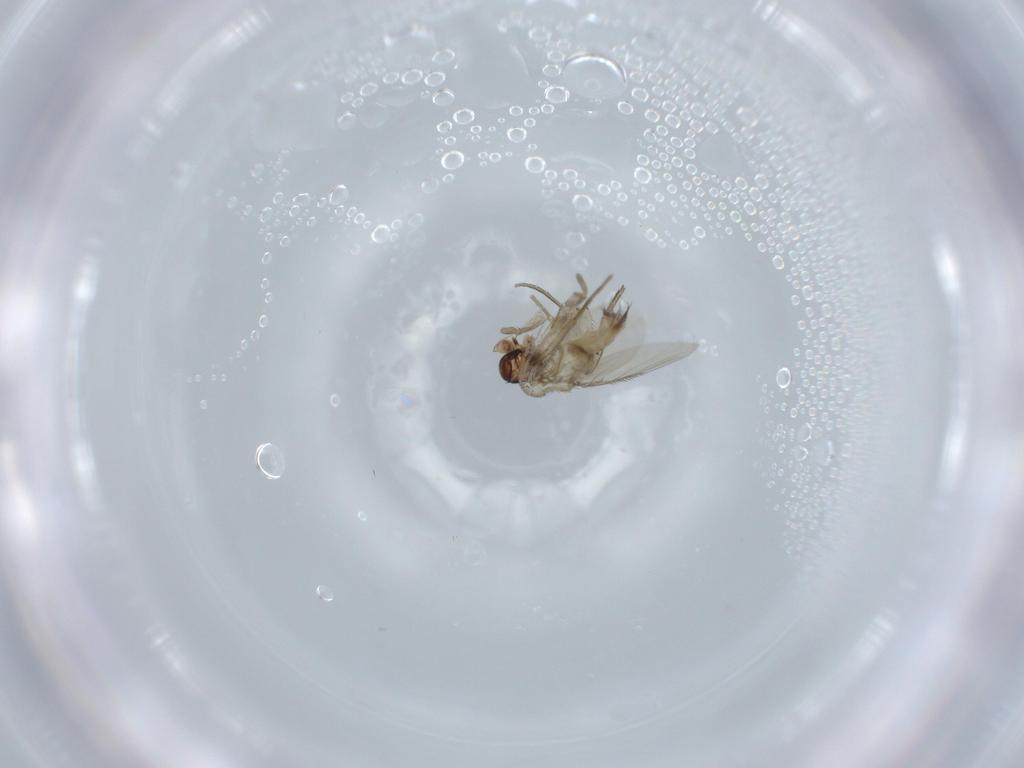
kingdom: Animalia
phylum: Arthropoda
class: Insecta
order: Diptera
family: Phoridae
